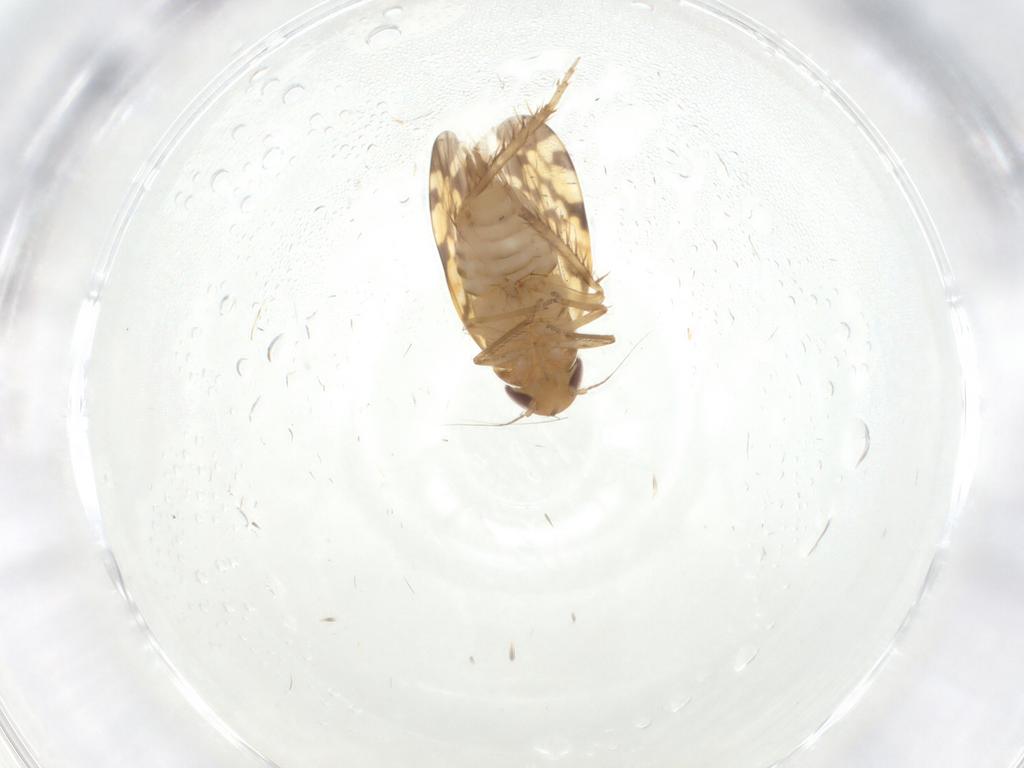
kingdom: Animalia
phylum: Arthropoda
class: Insecta
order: Hemiptera
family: Cicadellidae
